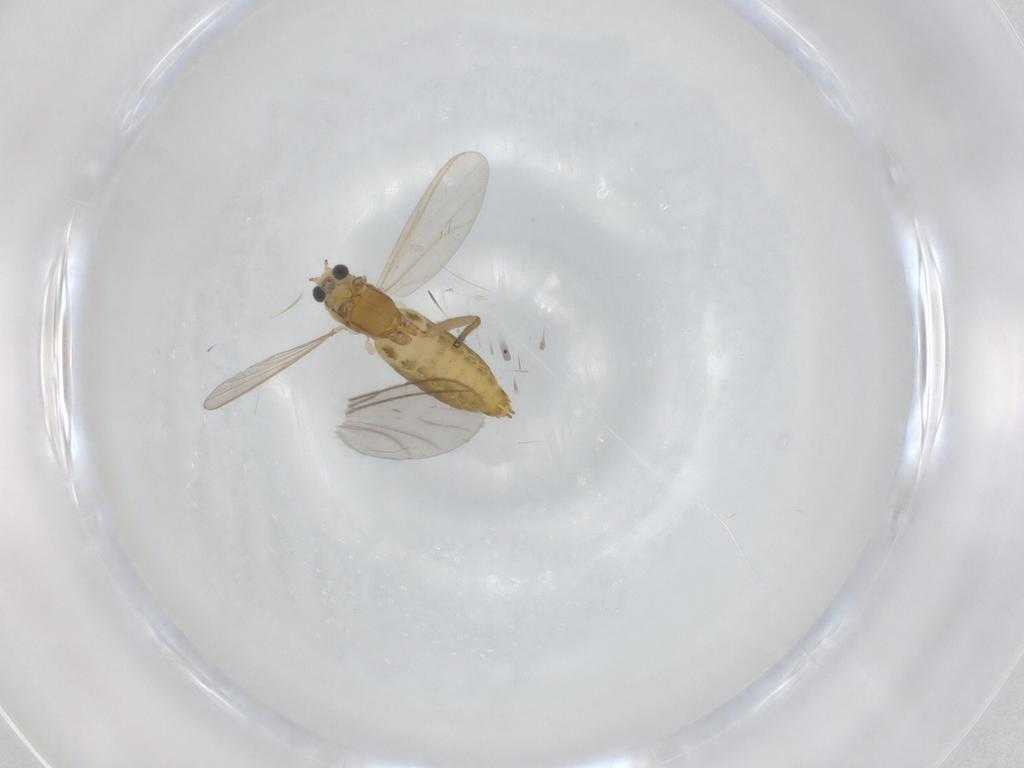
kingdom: Animalia
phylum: Arthropoda
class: Insecta
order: Diptera
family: Chironomidae
